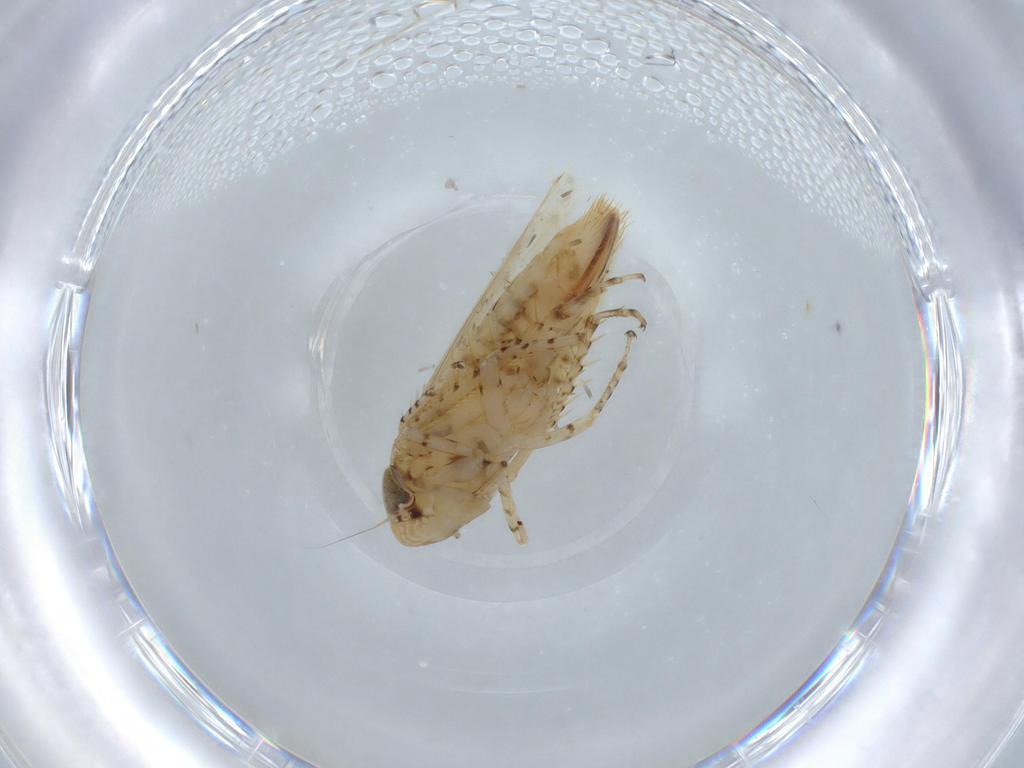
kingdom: Animalia
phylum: Arthropoda
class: Insecta
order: Hemiptera
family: Cicadellidae
